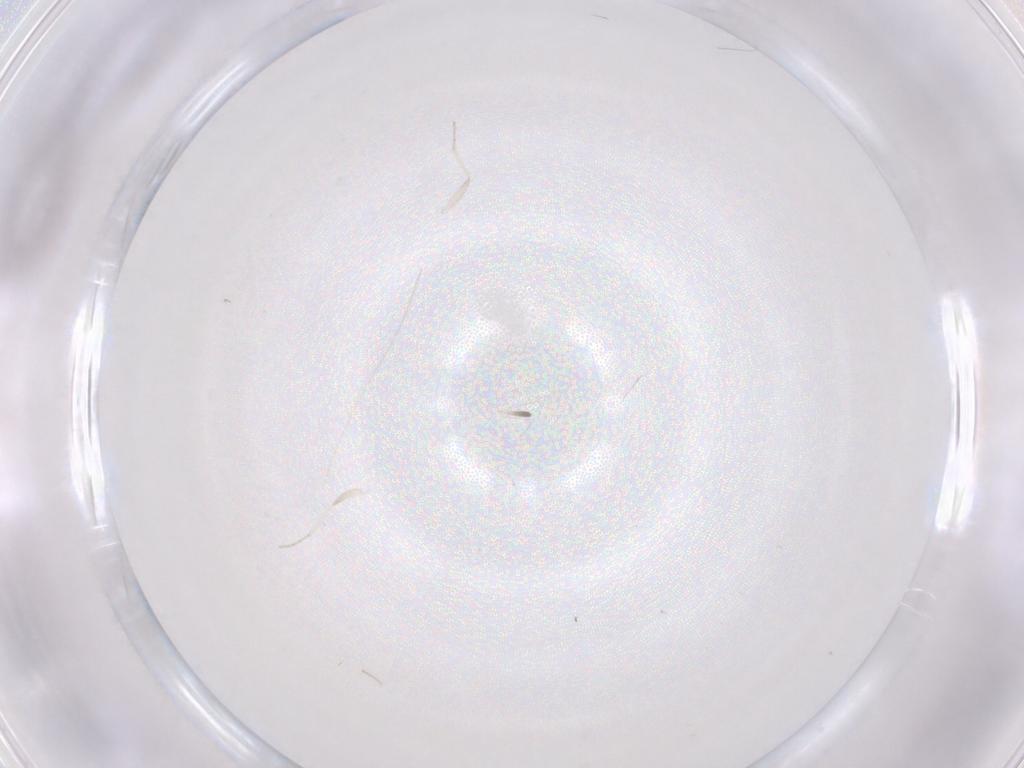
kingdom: Animalia
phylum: Arthropoda
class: Insecta
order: Diptera
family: Cecidomyiidae
